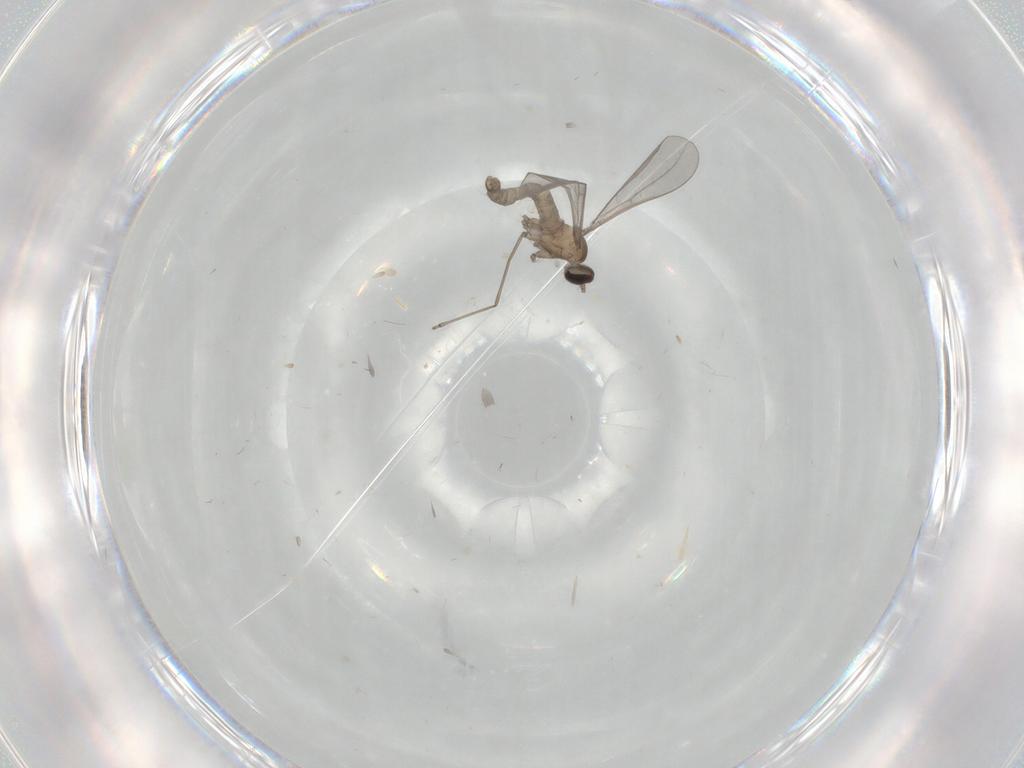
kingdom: Animalia
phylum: Arthropoda
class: Insecta
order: Diptera
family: Cecidomyiidae
